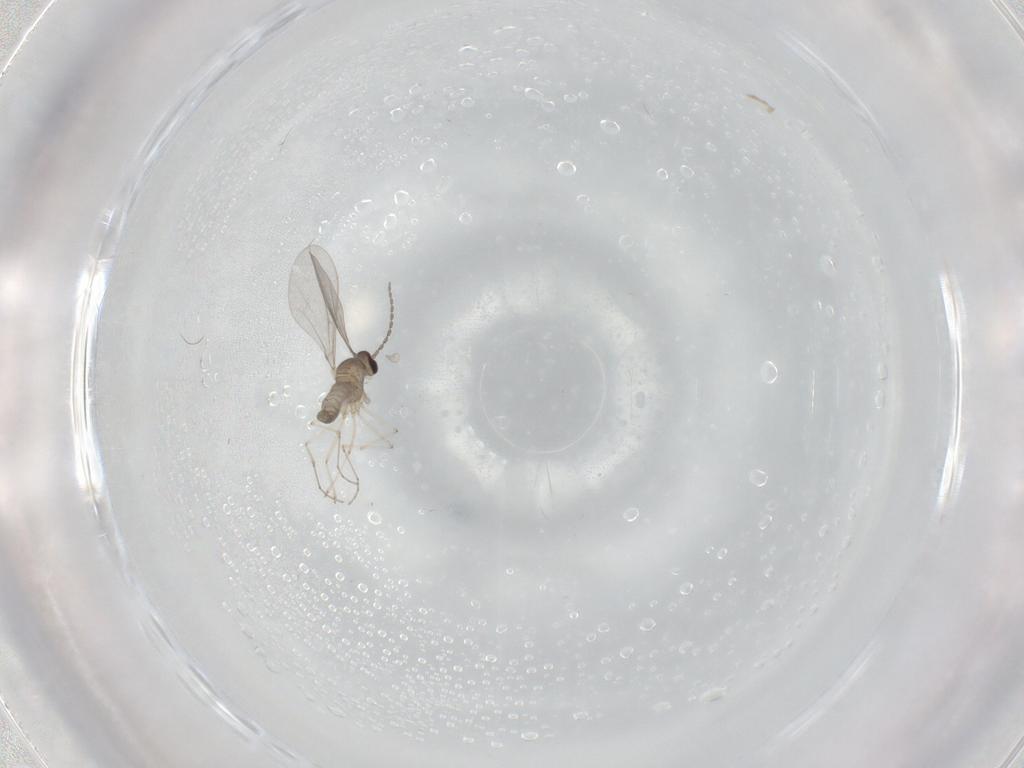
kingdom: Animalia
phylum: Arthropoda
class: Insecta
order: Diptera
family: Cecidomyiidae
